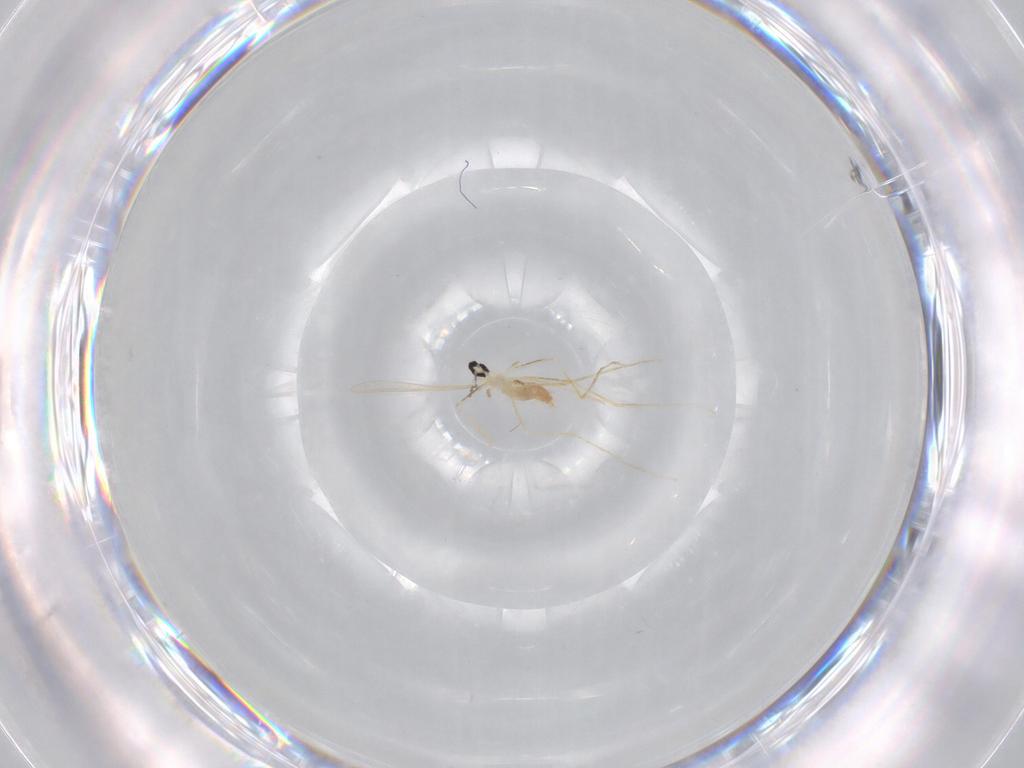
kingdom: Animalia
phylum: Arthropoda
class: Insecta
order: Diptera
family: Cecidomyiidae
